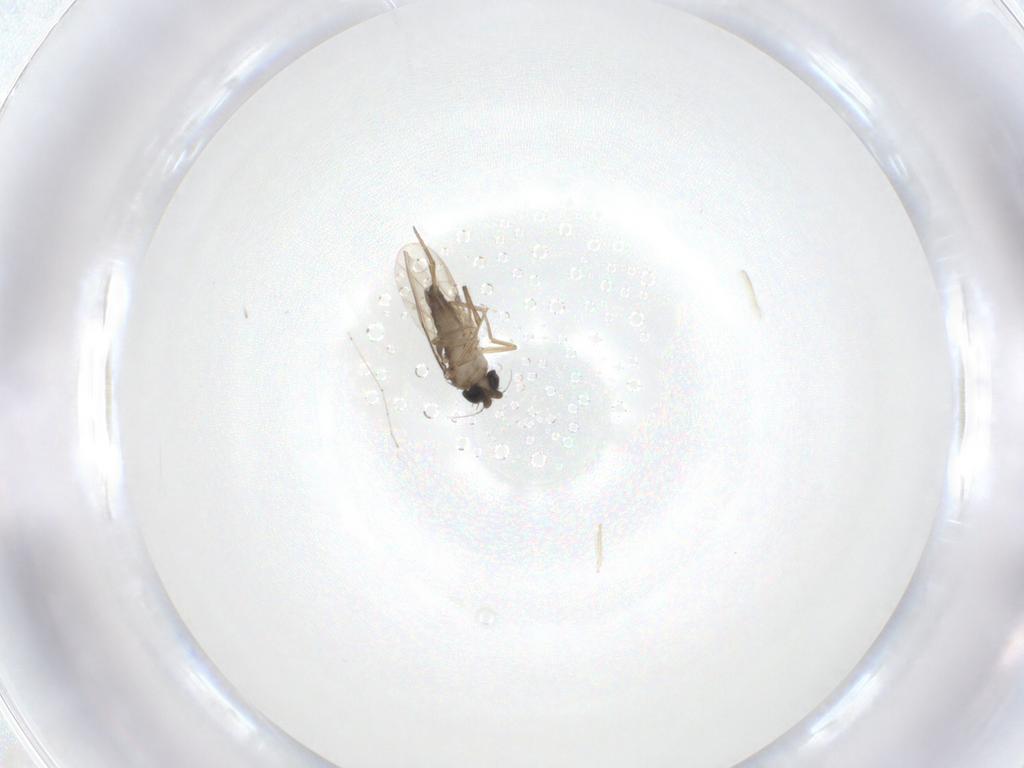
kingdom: Animalia
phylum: Arthropoda
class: Insecta
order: Diptera
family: Phoridae
